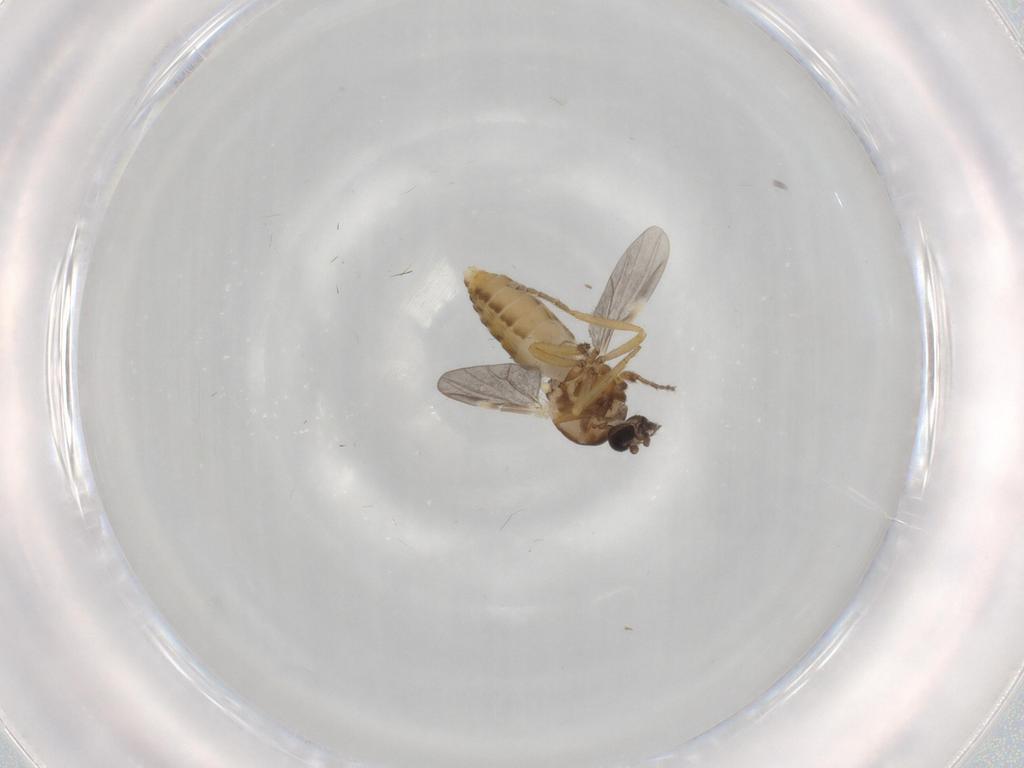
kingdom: Animalia
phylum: Arthropoda
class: Insecta
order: Diptera
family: Ceratopogonidae
